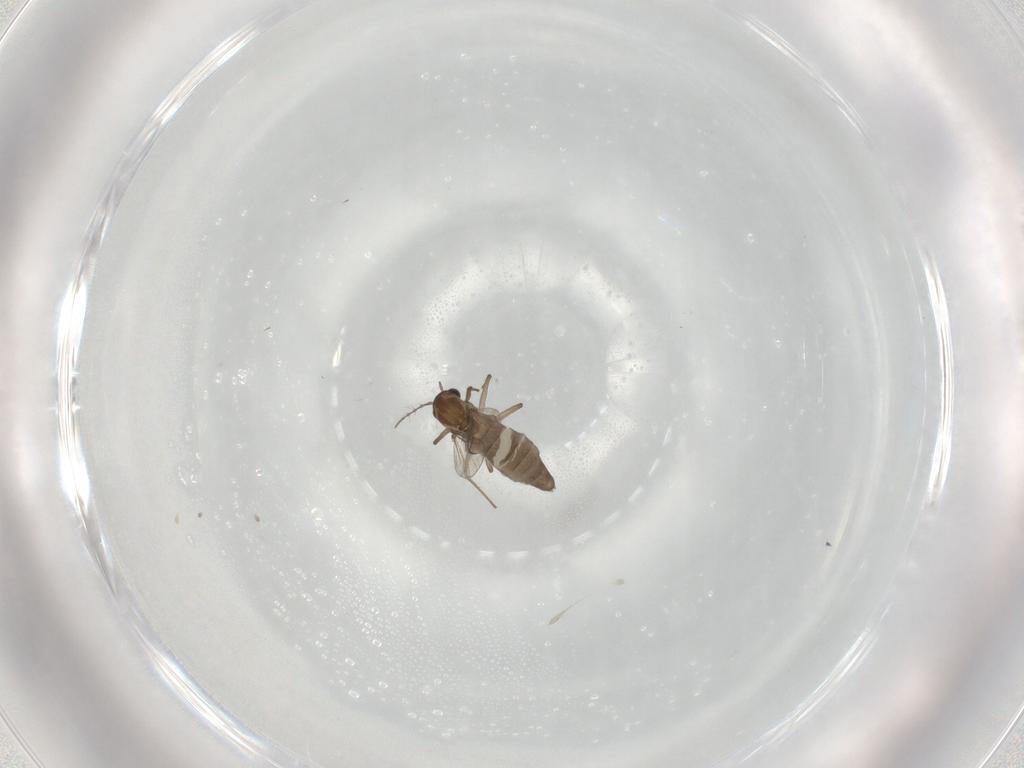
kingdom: Animalia
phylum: Arthropoda
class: Insecta
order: Diptera
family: Chironomidae
